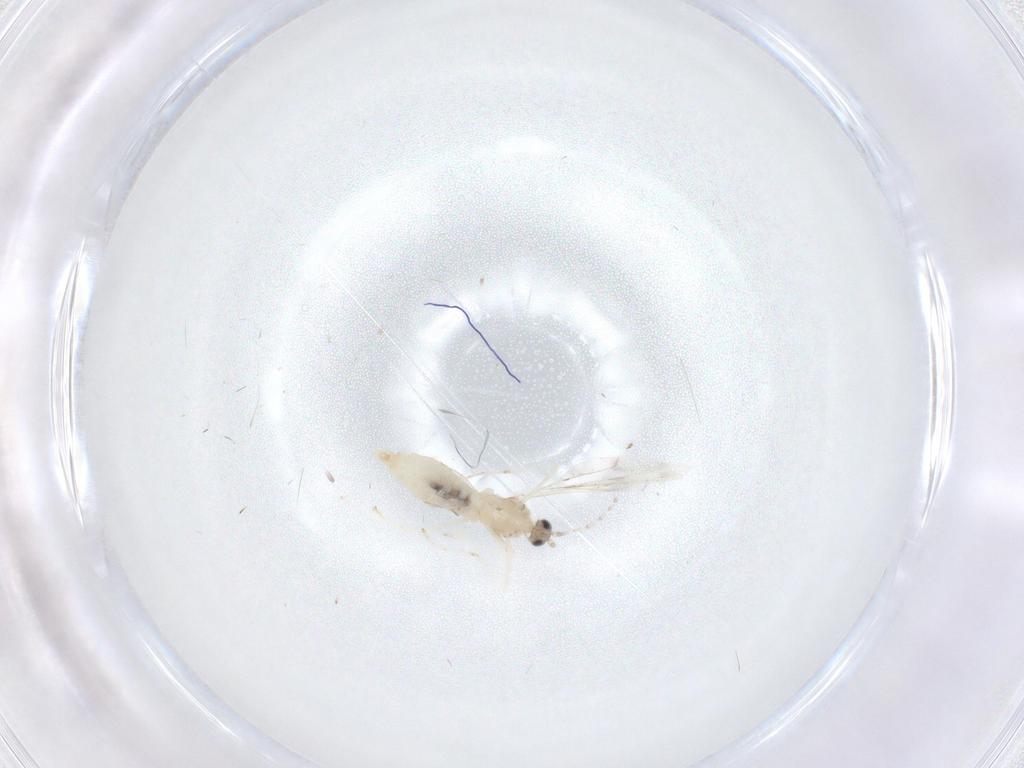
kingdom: Animalia
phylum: Arthropoda
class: Insecta
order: Diptera
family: Cecidomyiidae
